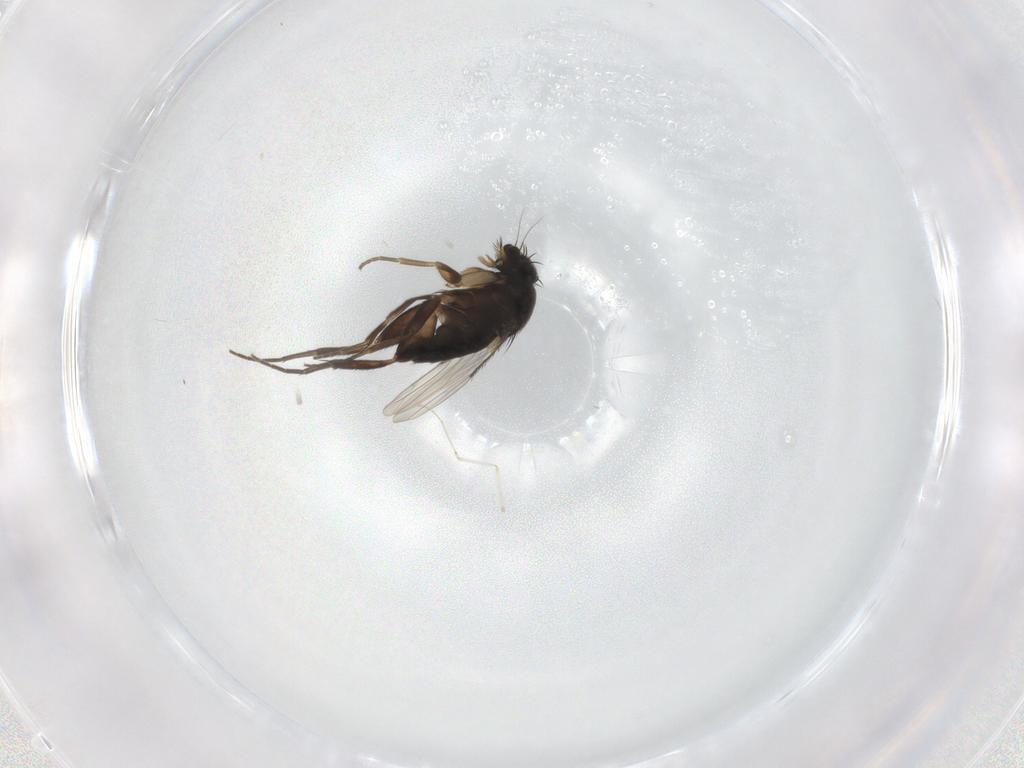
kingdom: Animalia
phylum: Arthropoda
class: Insecta
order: Diptera
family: Phoridae
